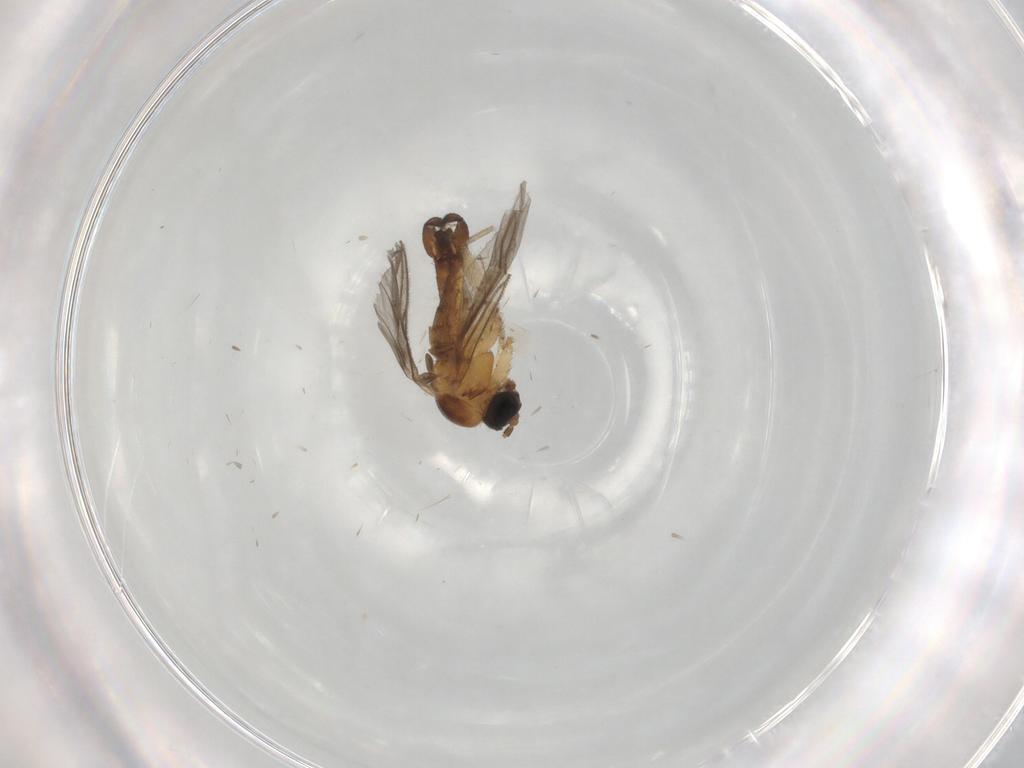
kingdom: Animalia
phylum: Arthropoda
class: Insecta
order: Diptera
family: Sciaridae
